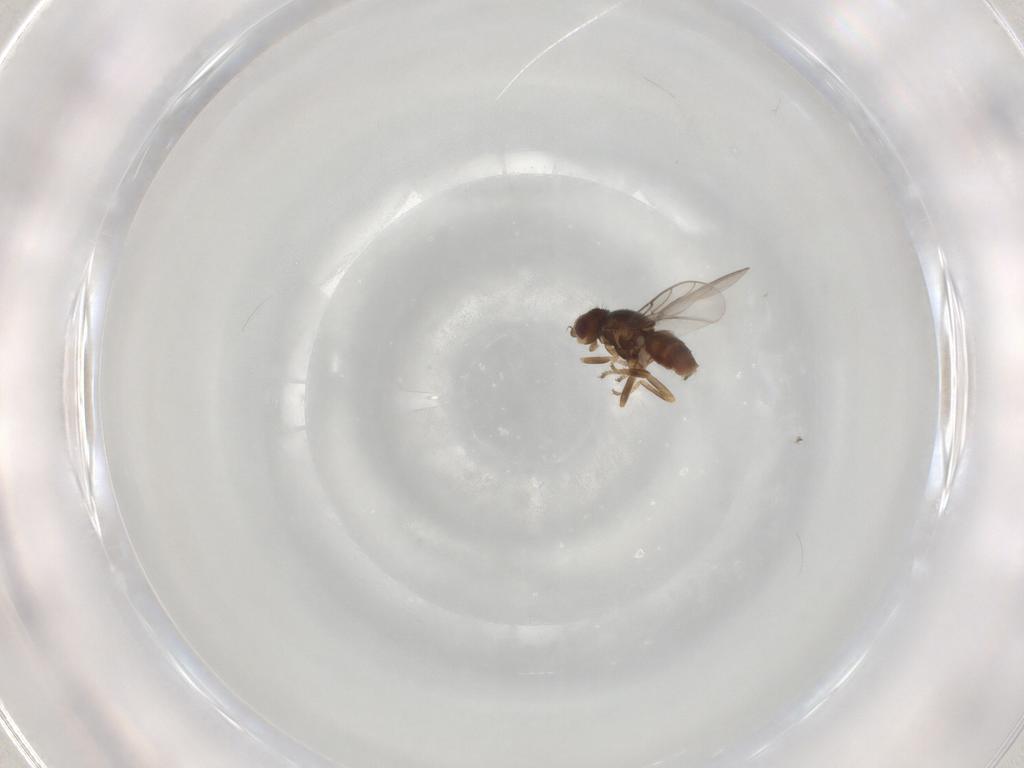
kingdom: Animalia
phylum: Arthropoda
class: Insecta
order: Diptera
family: Chloropidae
